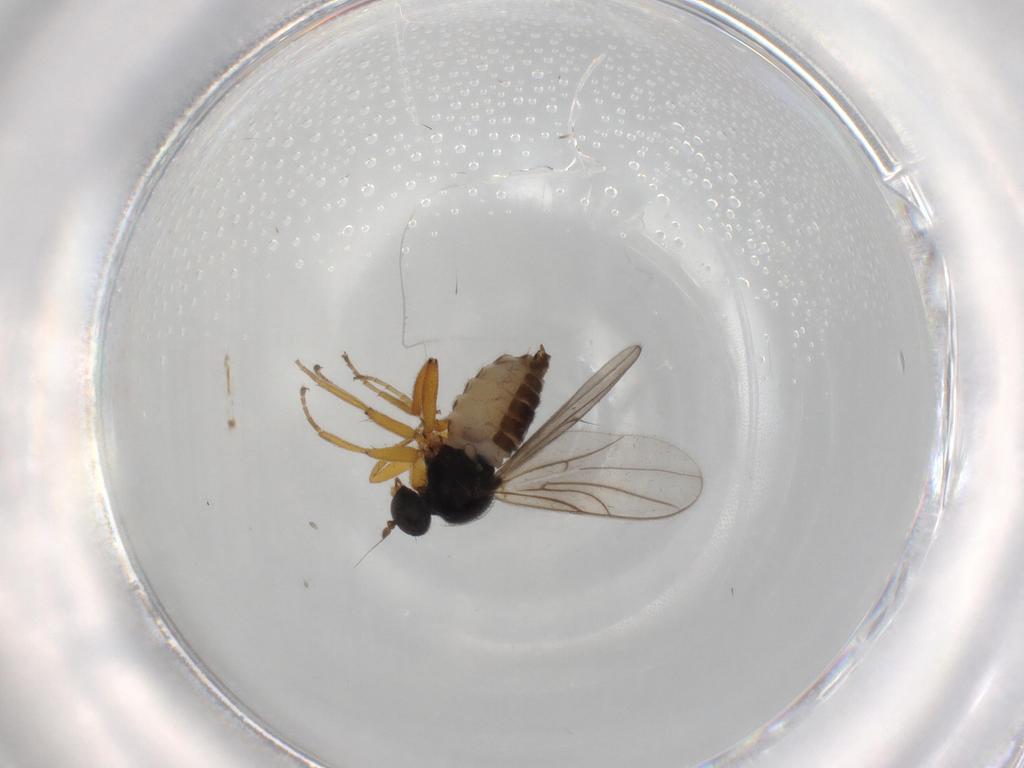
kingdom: Animalia
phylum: Arthropoda
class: Insecta
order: Diptera
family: Hybotidae
